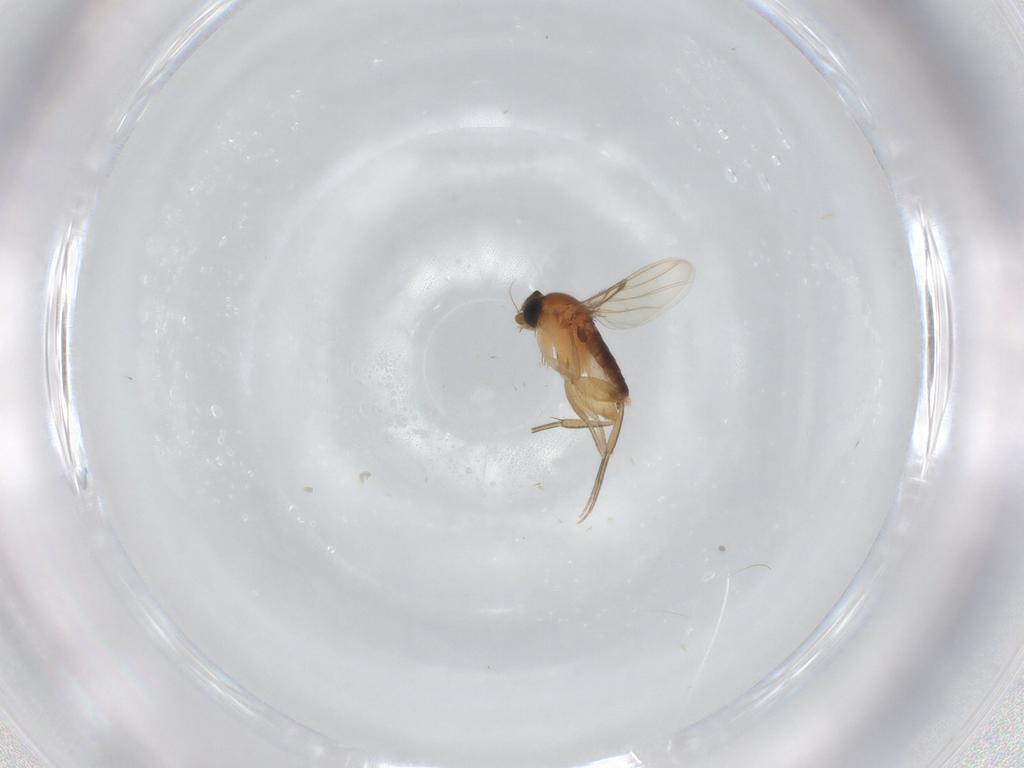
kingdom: Animalia
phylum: Arthropoda
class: Insecta
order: Diptera
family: Phoridae
